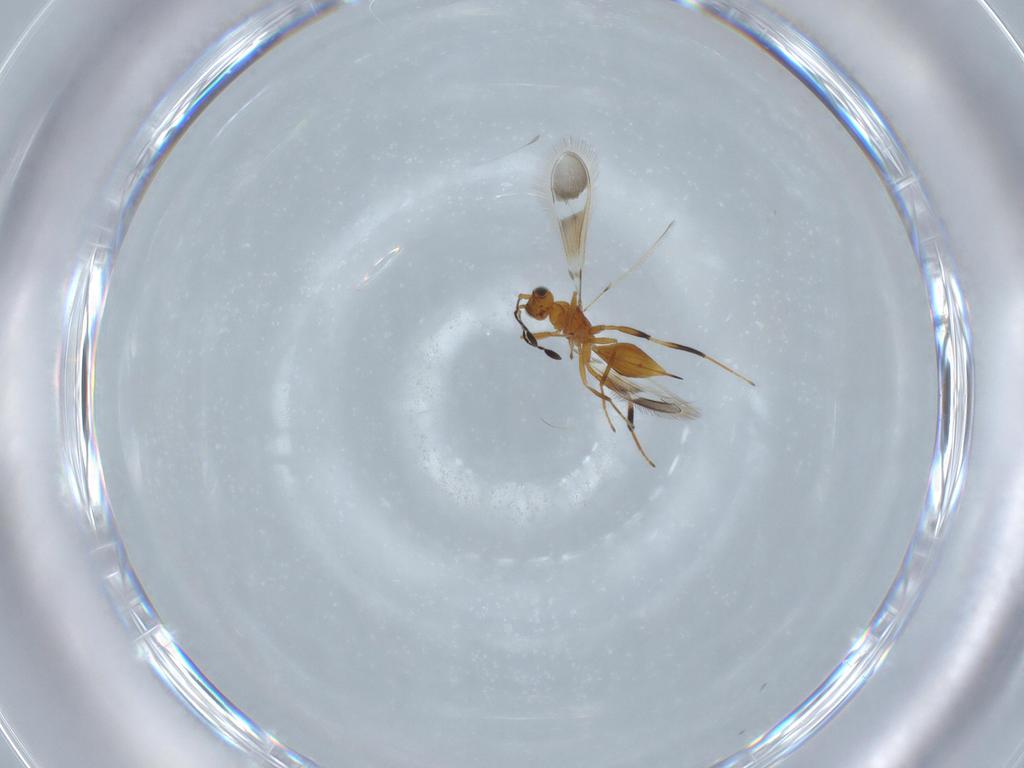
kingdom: Animalia
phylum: Arthropoda
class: Insecta
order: Hymenoptera
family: Mymaridae
